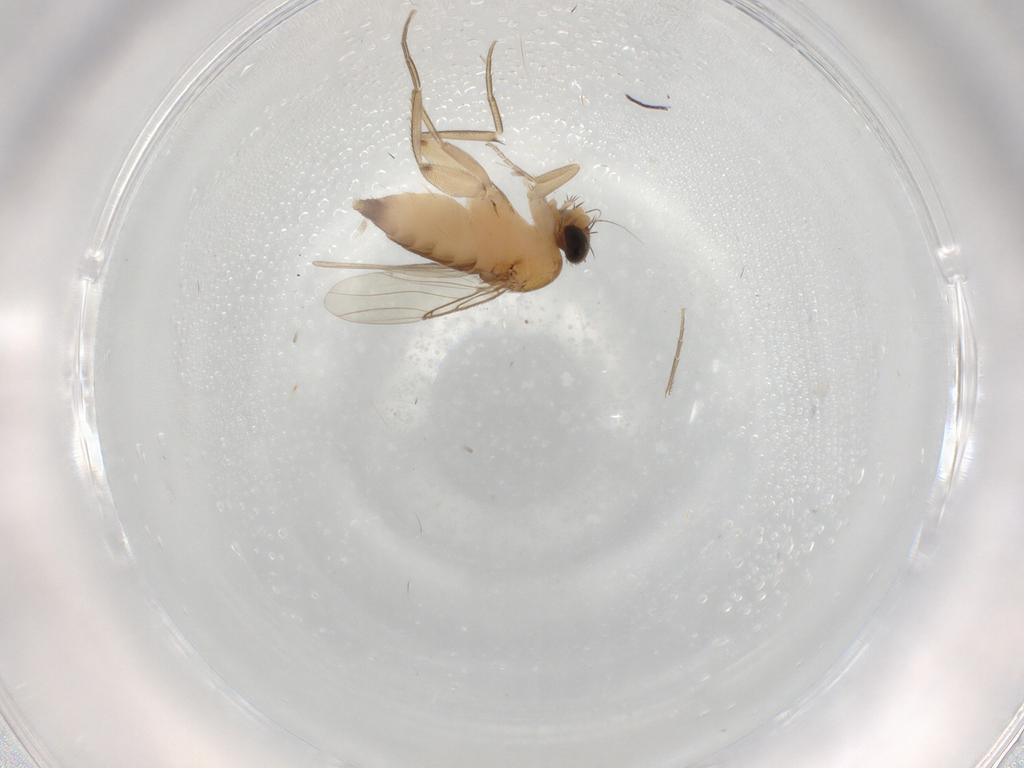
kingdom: Animalia
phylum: Arthropoda
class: Insecta
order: Diptera
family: Phoridae
